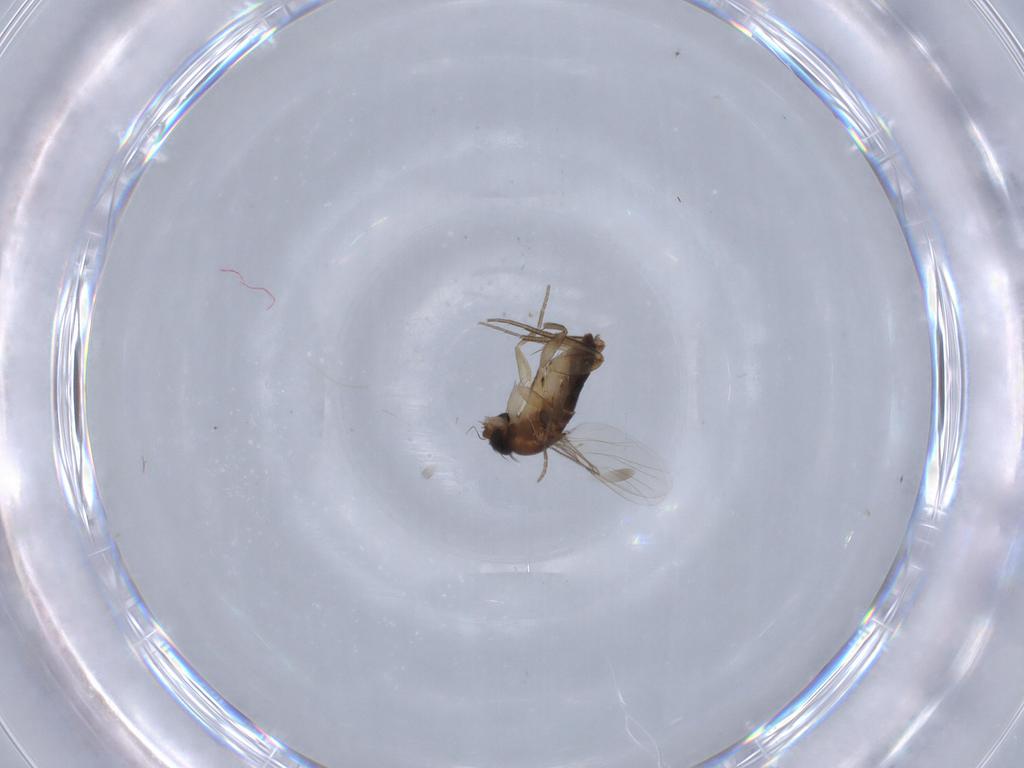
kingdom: Animalia
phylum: Arthropoda
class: Insecta
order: Diptera
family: Phoridae
